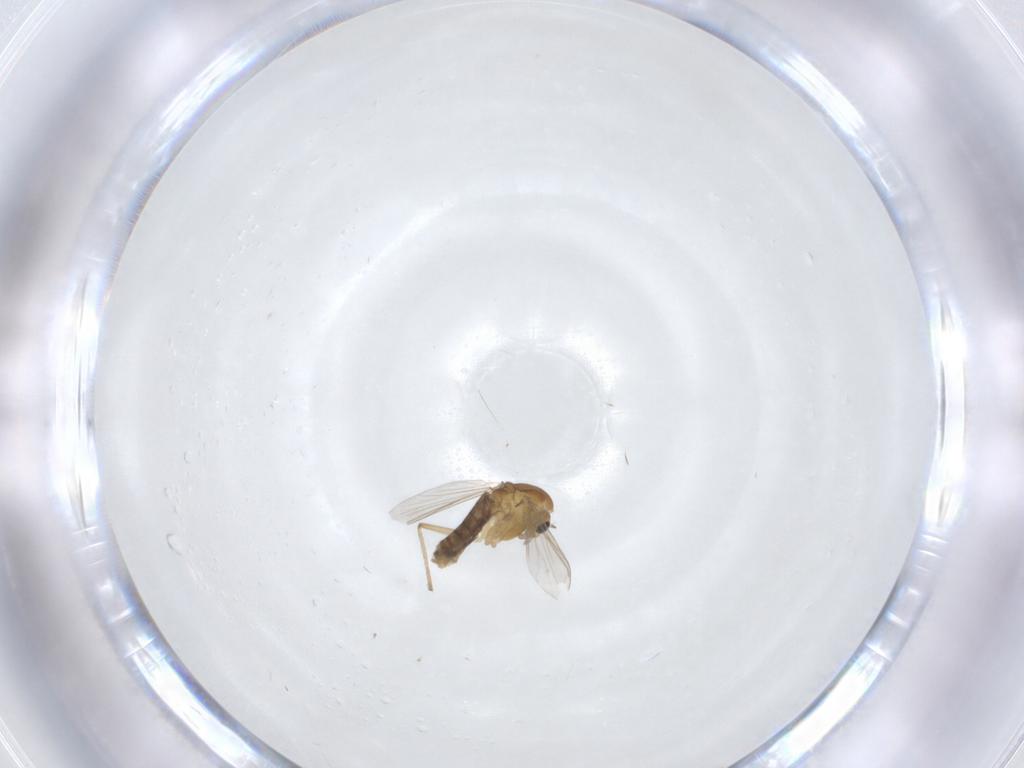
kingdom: Animalia
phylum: Arthropoda
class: Insecta
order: Diptera
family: Chironomidae
